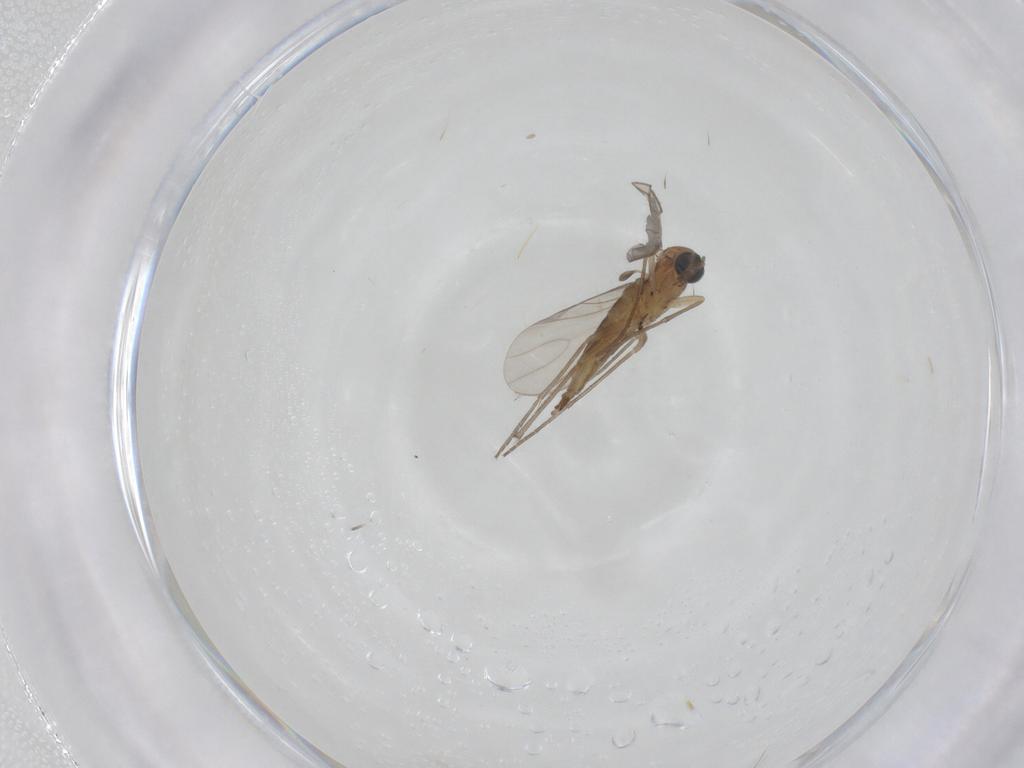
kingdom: Animalia
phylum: Arthropoda
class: Insecta
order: Diptera
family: Sciaridae
